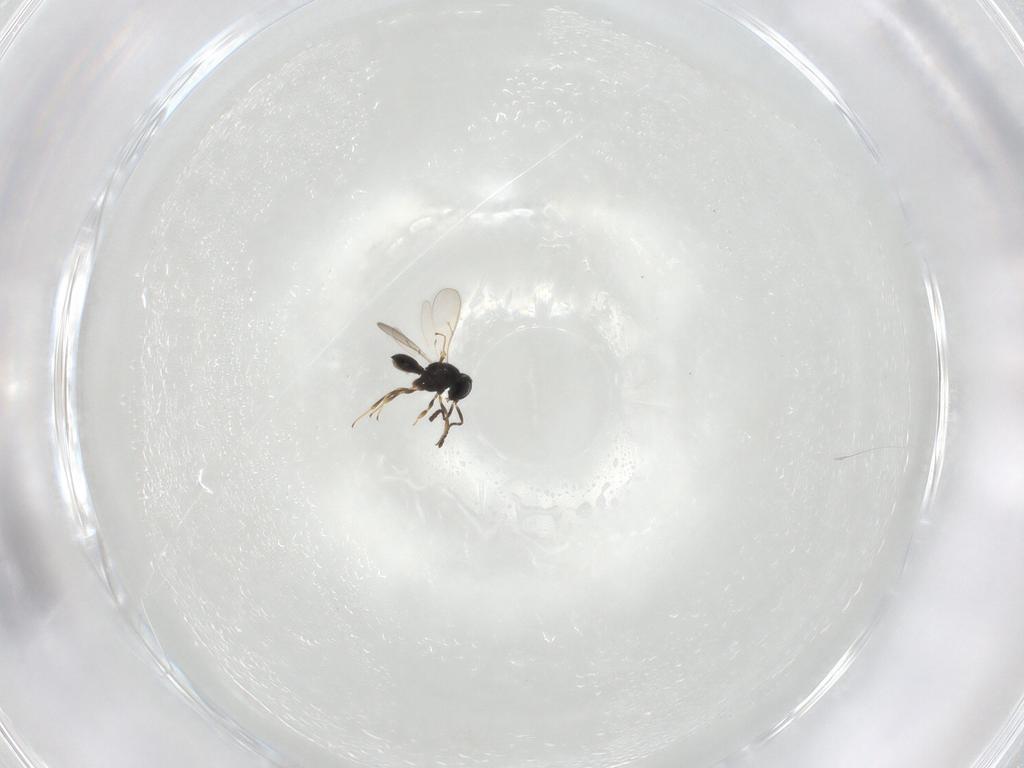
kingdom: Animalia
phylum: Arthropoda
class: Insecta
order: Hymenoptera
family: Scelionidae
